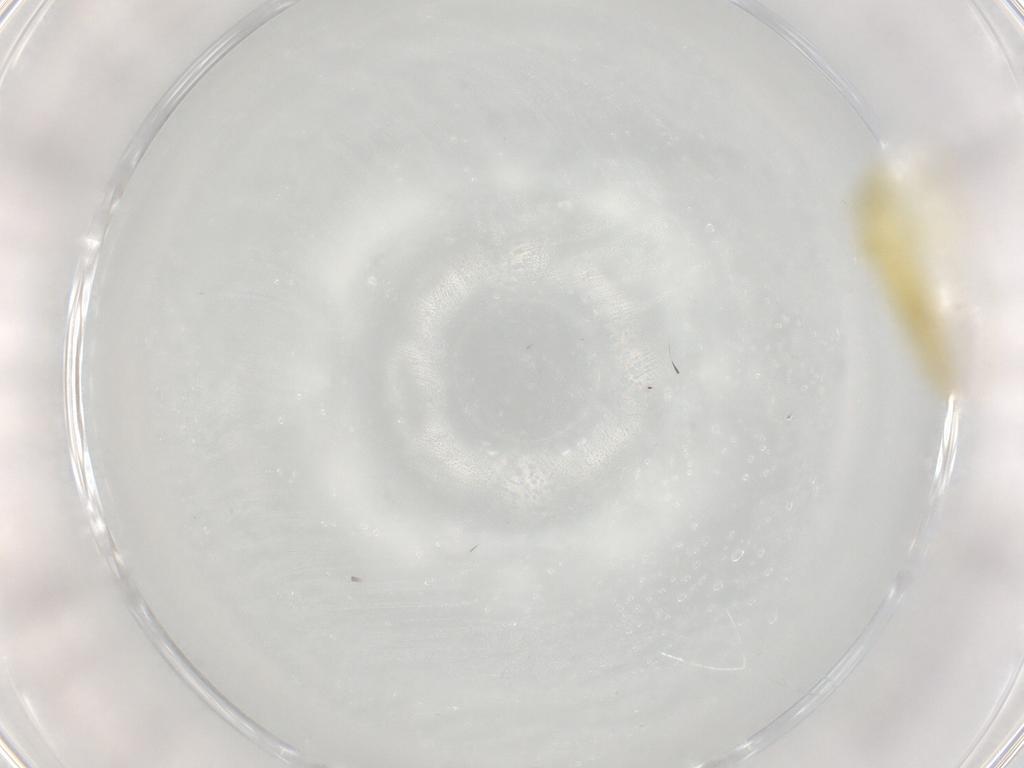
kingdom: Animalia
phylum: Arthropoda
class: Insecta
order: Hemiptera
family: Cicadellidae
